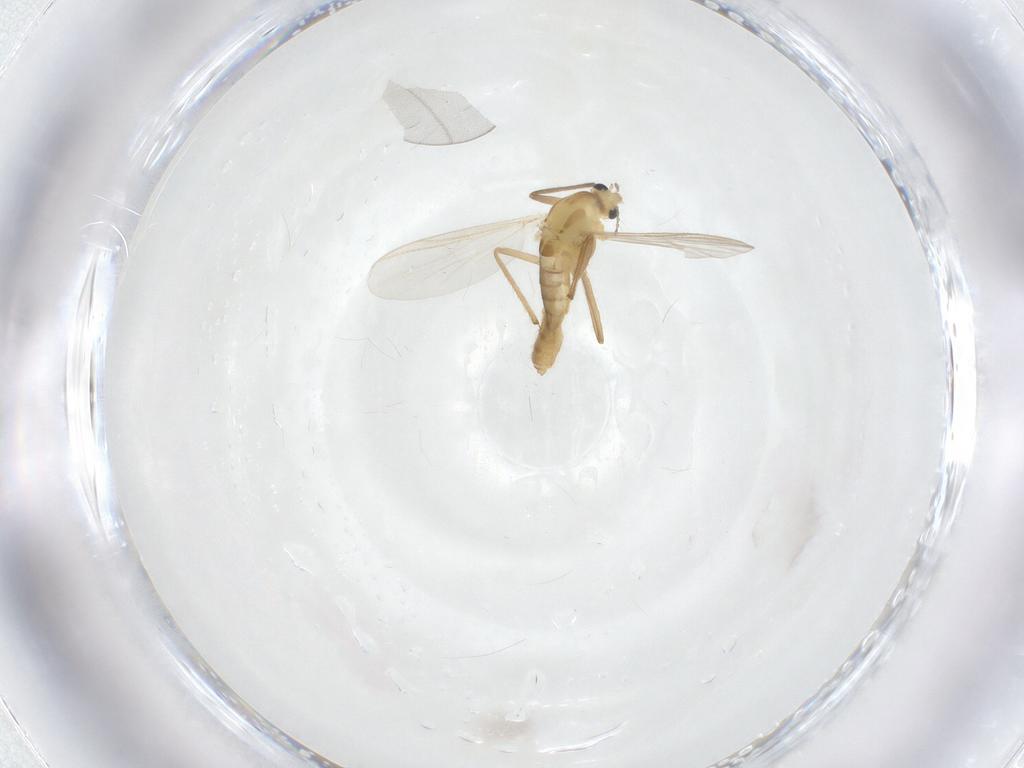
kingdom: Animalia
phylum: Arthropoda
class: Insecta
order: Diptera
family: Chironomidae
